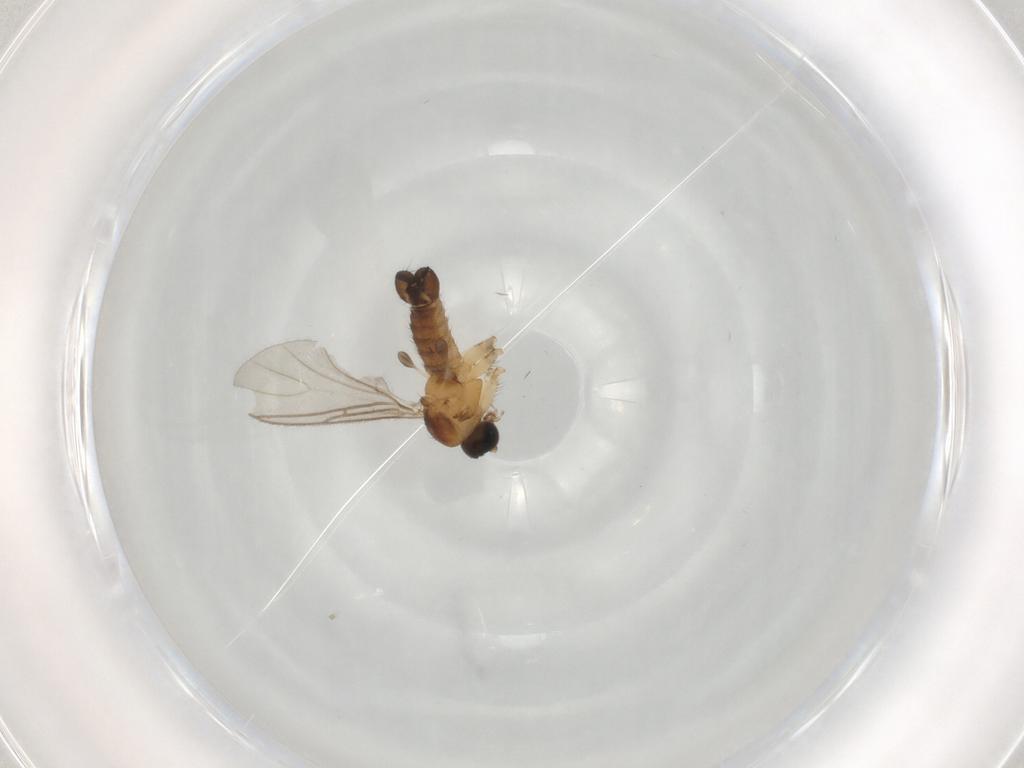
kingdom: Animalia
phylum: Arthropoda
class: Insecta
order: Diptera
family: Sciaridae
